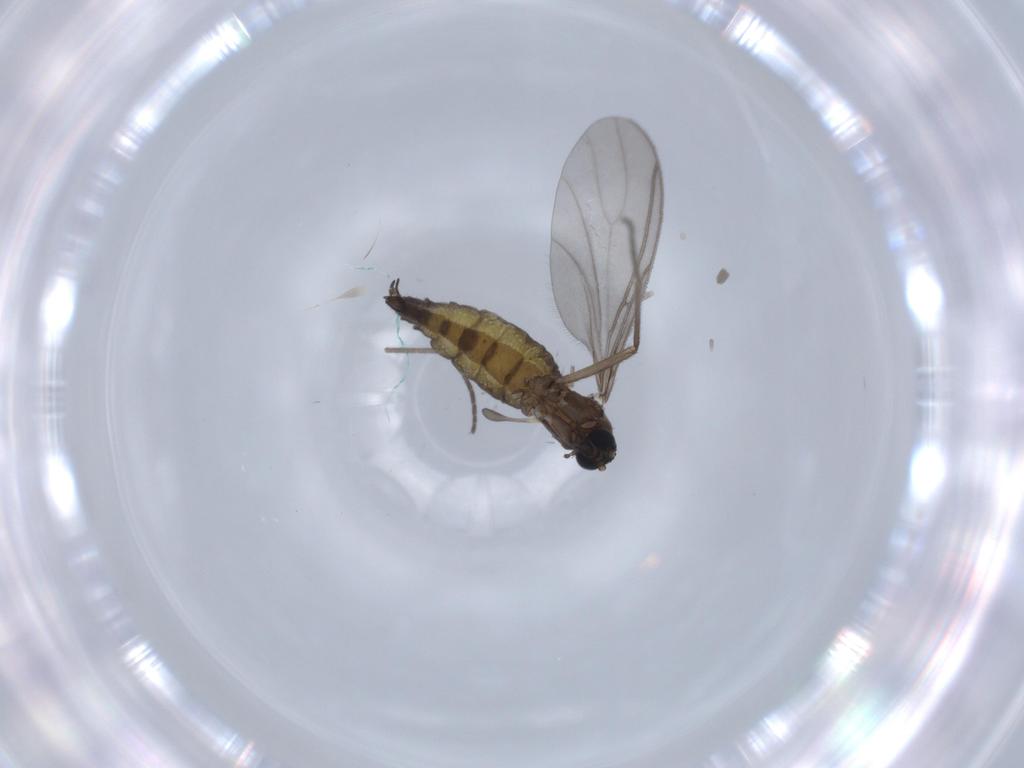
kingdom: Animalia
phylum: Arthropoda
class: Insecta
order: Diptera
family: Sciaridae
